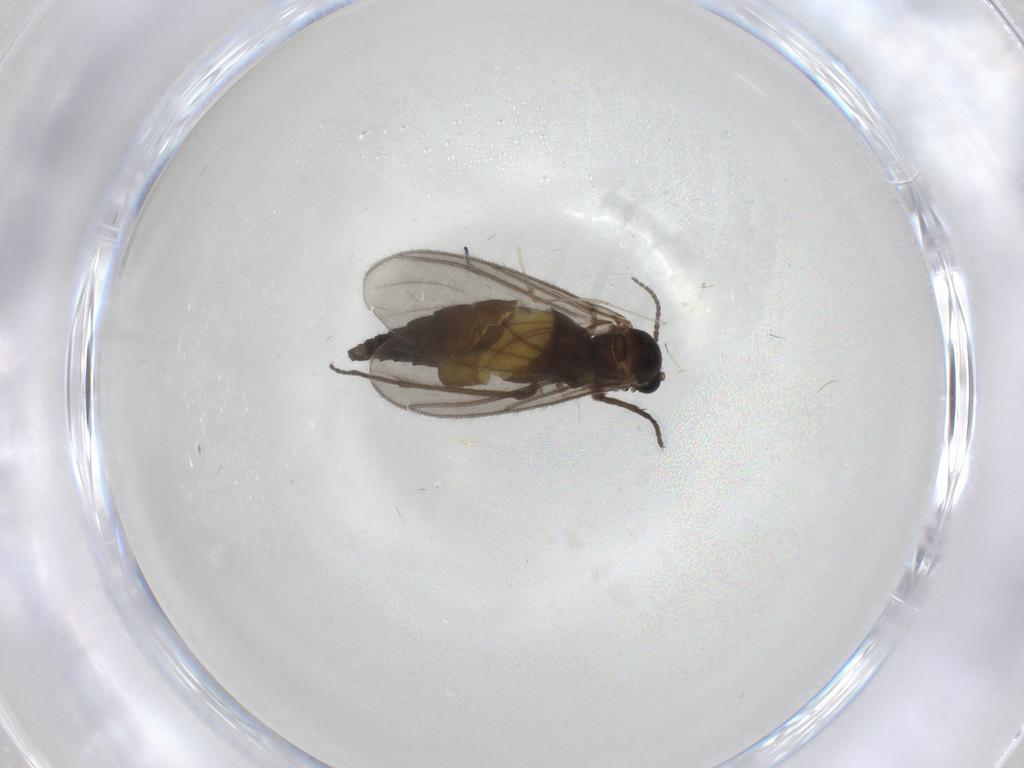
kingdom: Animalia
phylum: Arthropoda
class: Insecta
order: Diptera
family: Sciaridae
